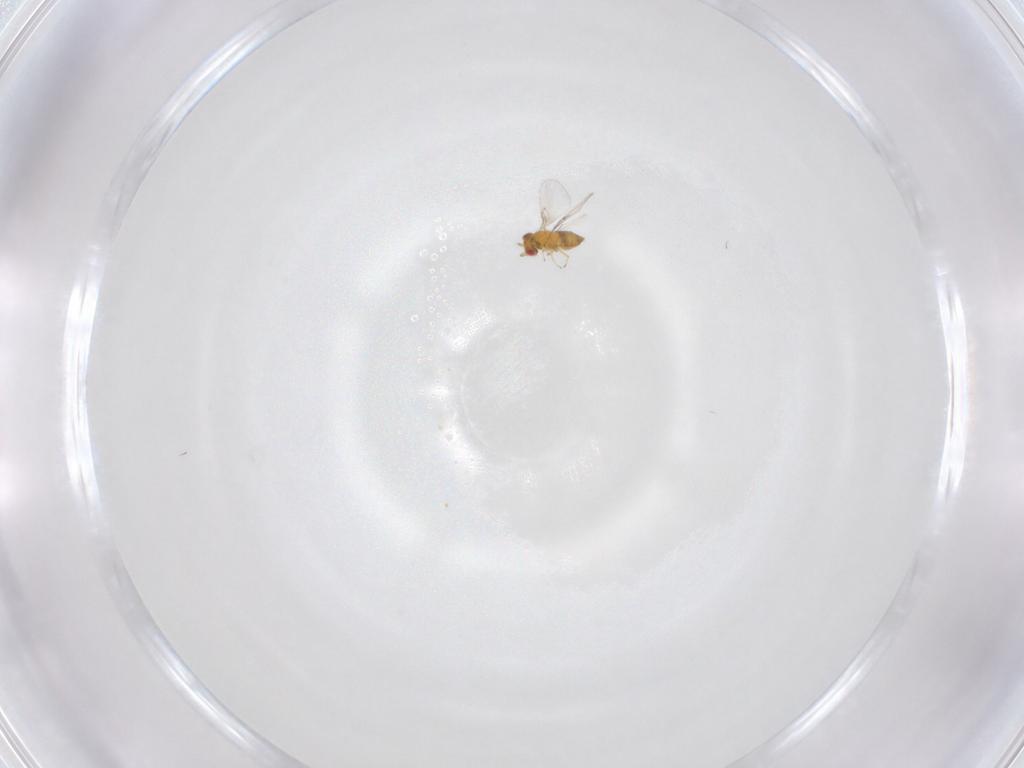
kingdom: Animalia
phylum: Arthropoda
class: Insecta
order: Hymenoptera
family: Trichogrammatidae
